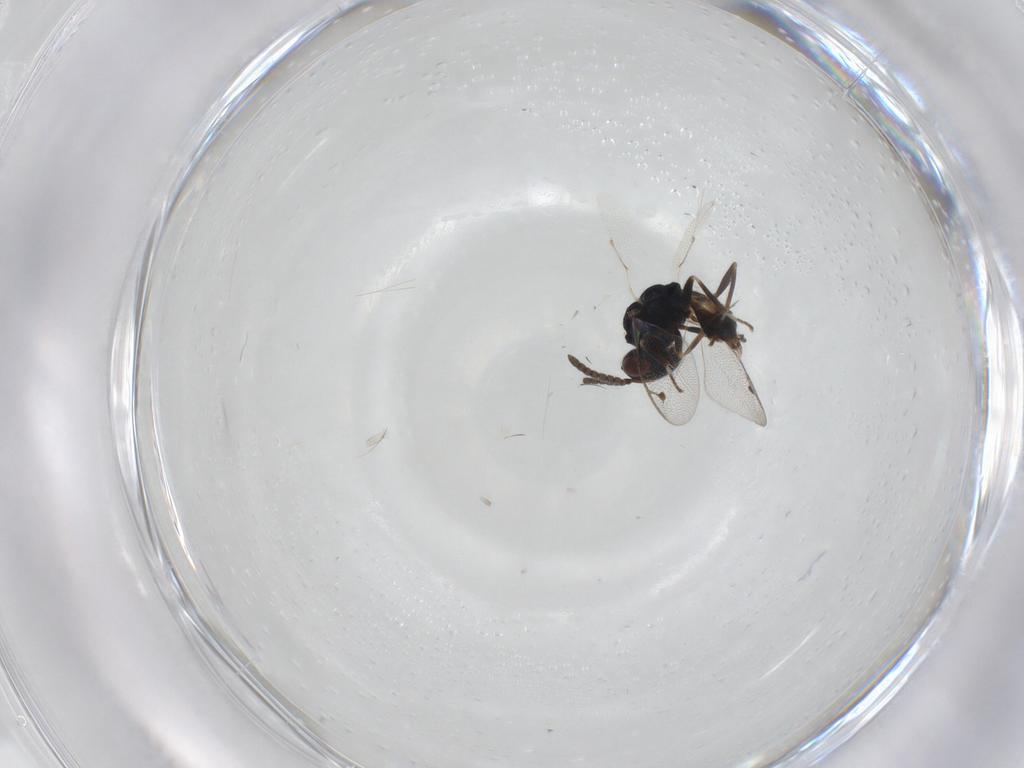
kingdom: Animalia
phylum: Arthropoda
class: Insecta
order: Hymenoptera
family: Pteromalidae
